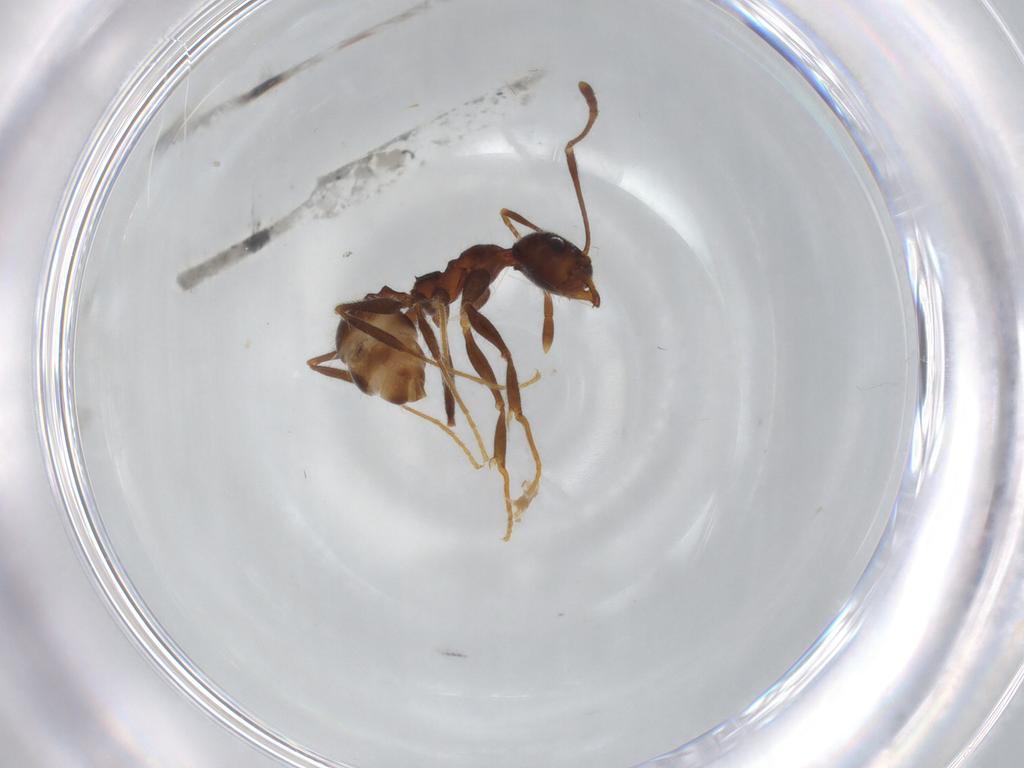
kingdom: Animalia
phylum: Arthropoda
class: Insecta
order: Hymenoptera
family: Formicidae
